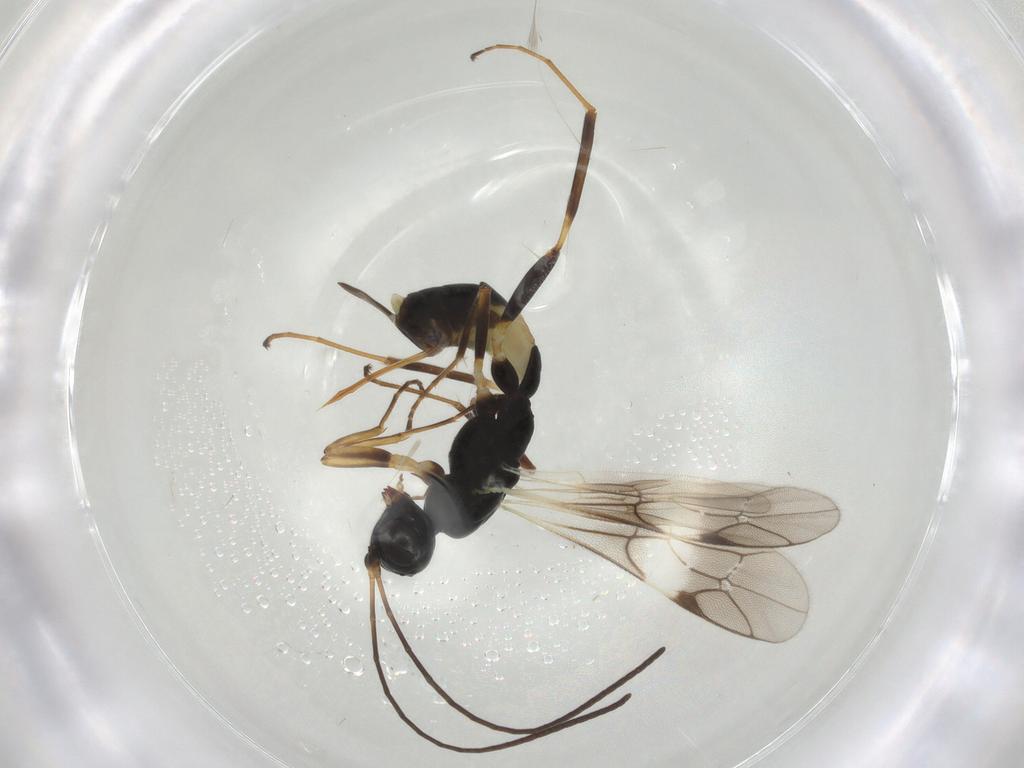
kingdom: Animalia
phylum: Arthropoda
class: Insecta
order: Hymenoptera
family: Ichneumonidae
